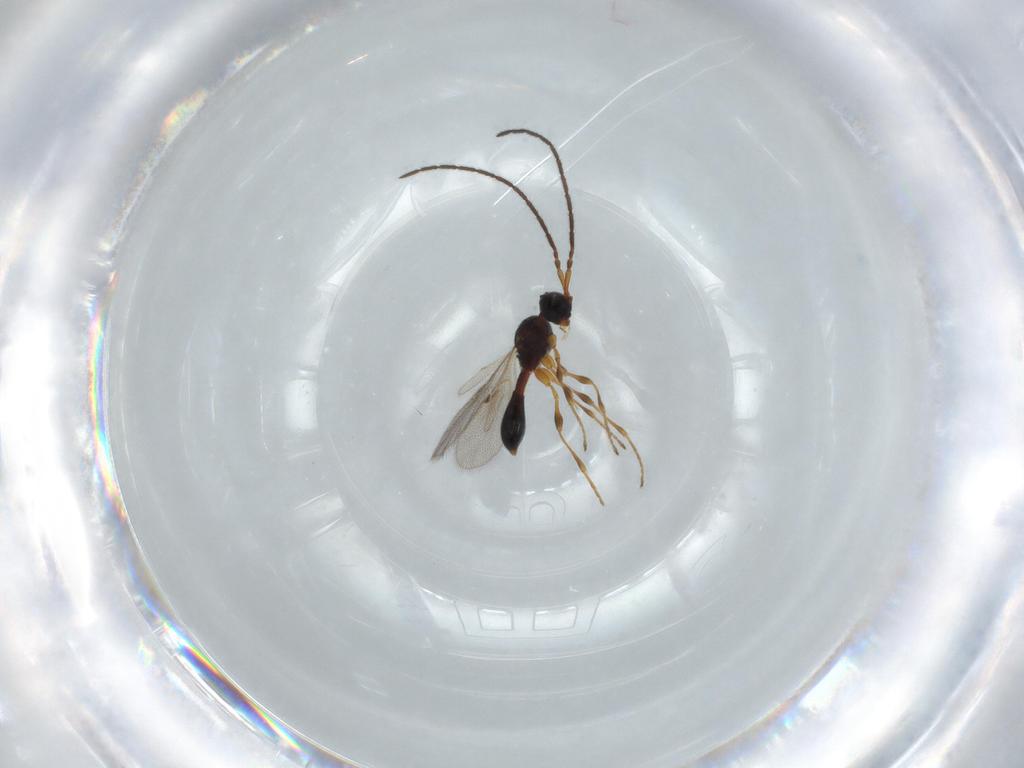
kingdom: Animalia
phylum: Arthropoda
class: Insecta
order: Hymenoptera
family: Diapriidae
